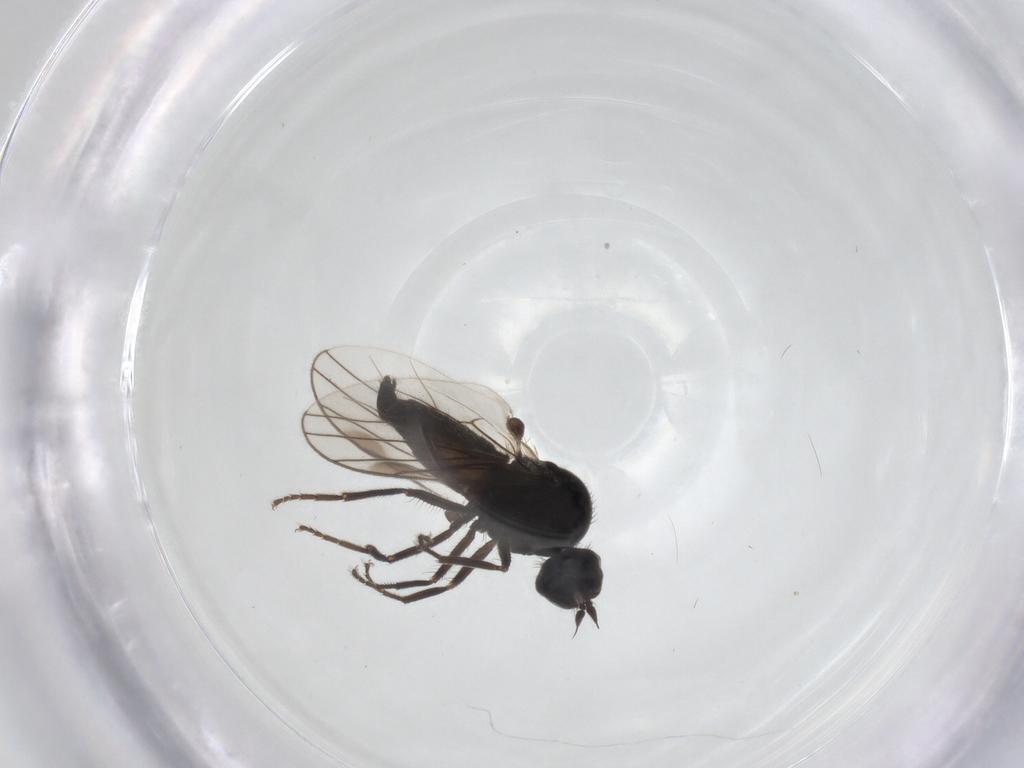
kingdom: Animalia
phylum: Arthropoda
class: Insecta
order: Diptera
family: Hybotidae
